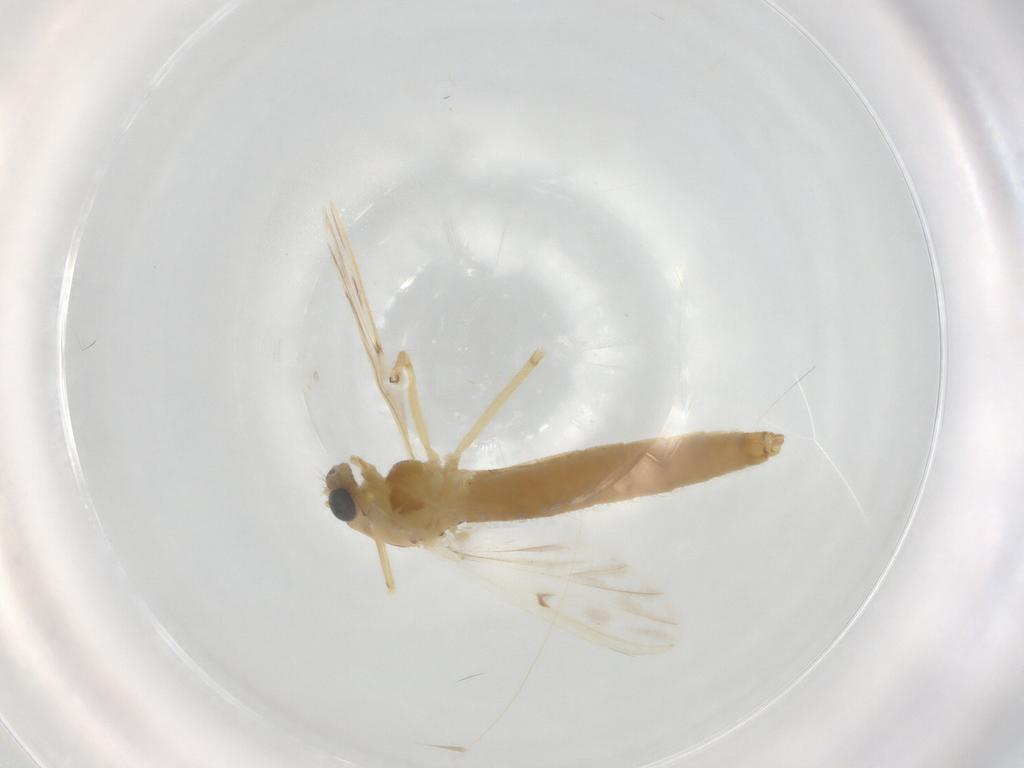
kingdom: Animalia
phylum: Arthropoda
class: Insecta
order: Diptera
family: Chironomidae
